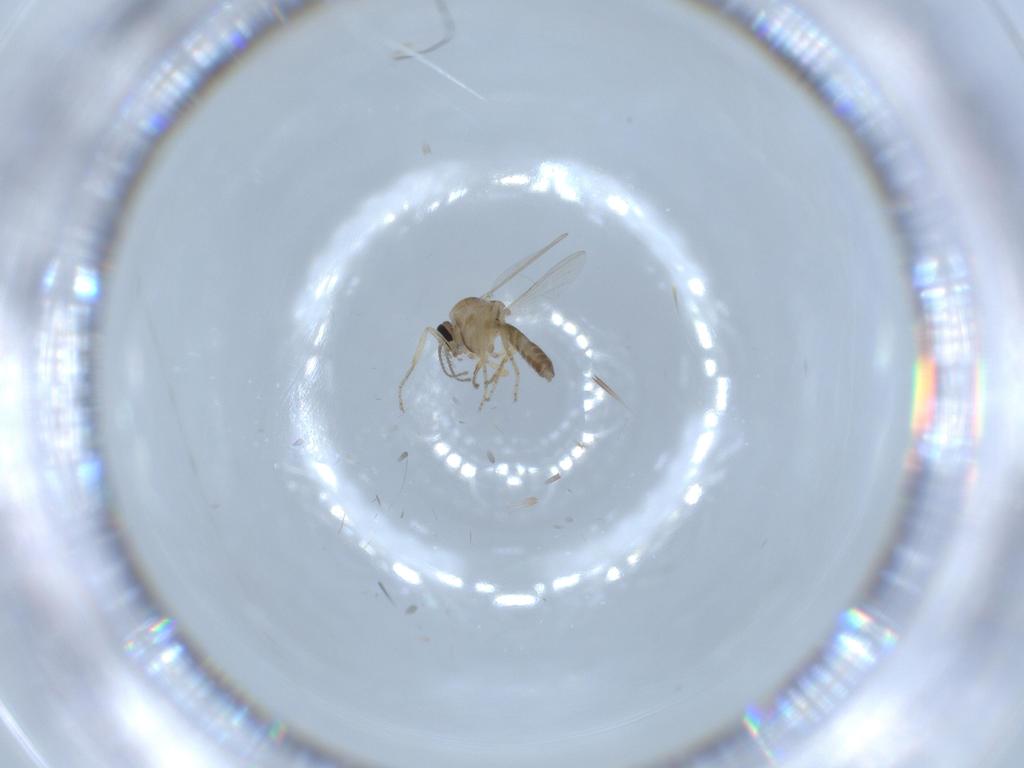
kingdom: Animalia
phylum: Arthropoda
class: Insecta
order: Diptera
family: Ceratopogonidae
